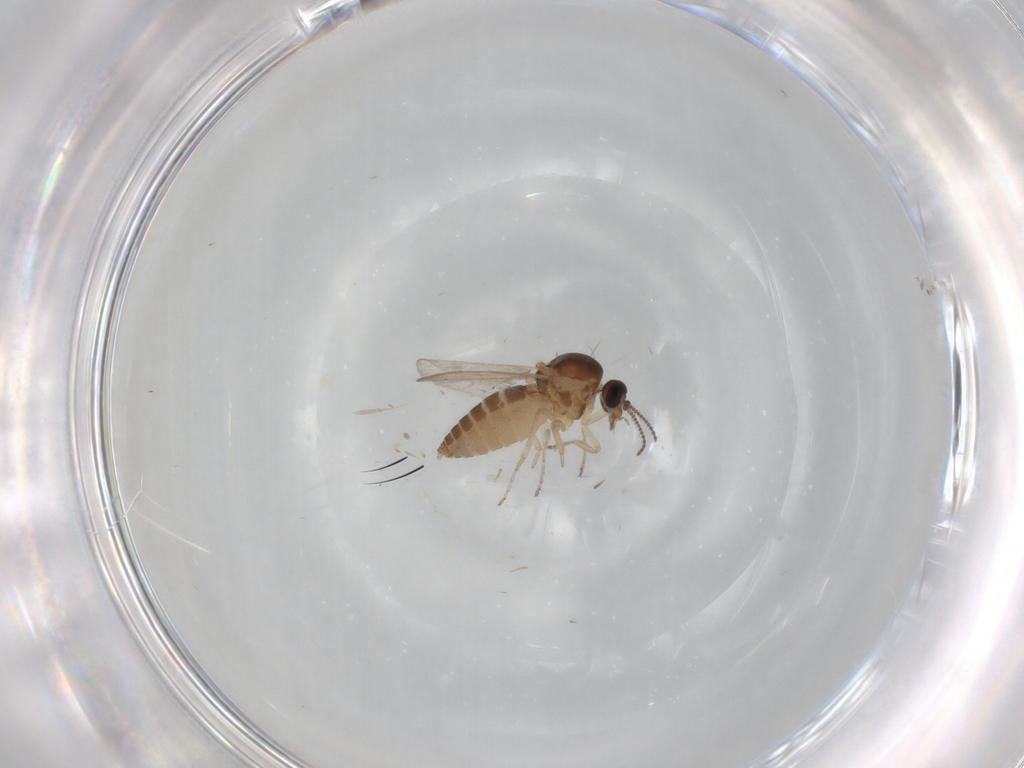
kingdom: Animalia
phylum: Arthropoda
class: Insecta
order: Diptera
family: Ceratopogonidae
